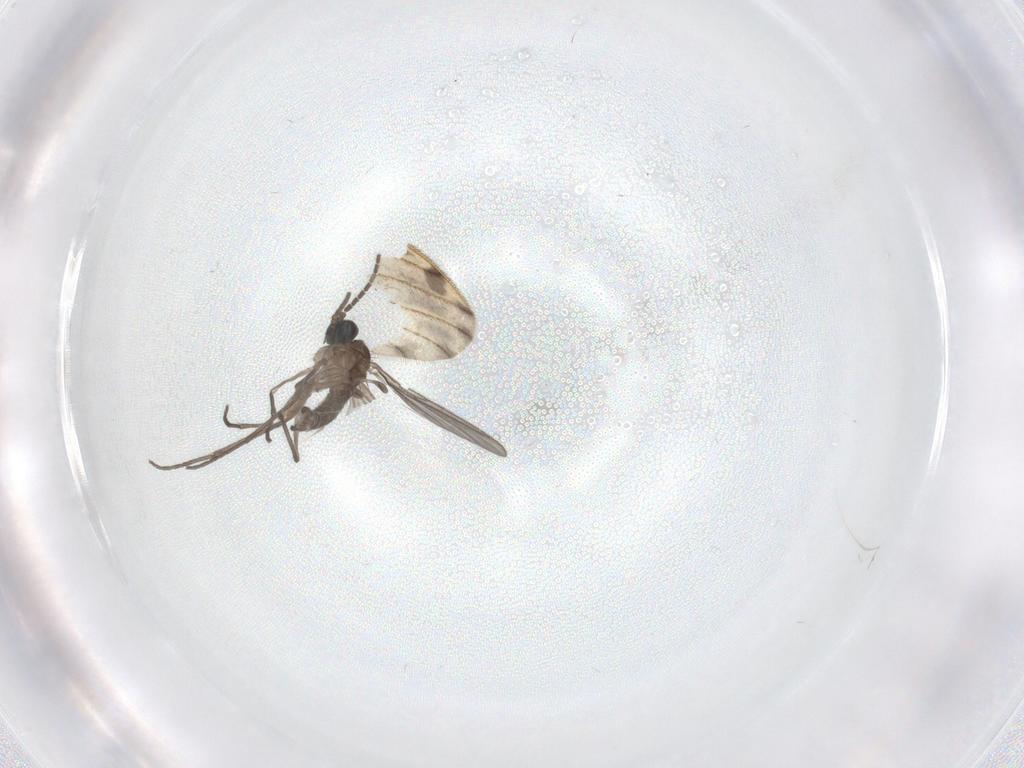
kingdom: Animalia
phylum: Arthropoda
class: Insecta
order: Diptera
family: Sciaridae
